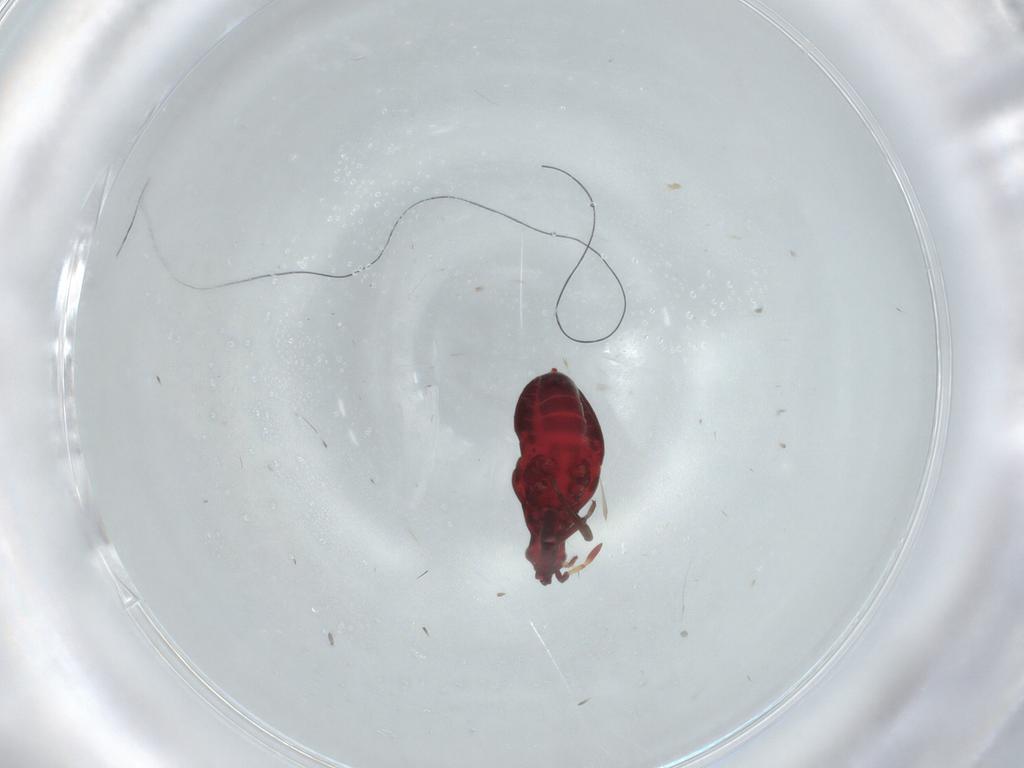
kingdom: Animalia
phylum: Arthropoda
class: Insecta
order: Hemiptera
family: Anthocoridae
